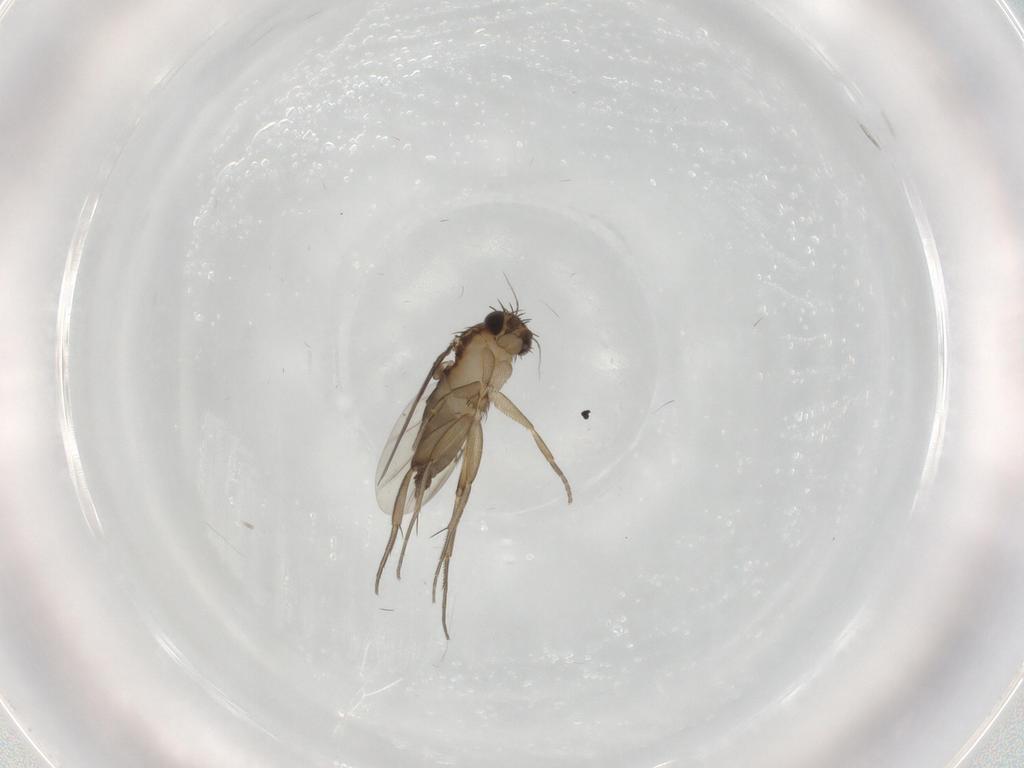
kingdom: Animalia
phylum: Arthropoda
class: Insecta
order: Diptera
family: Phoridae
